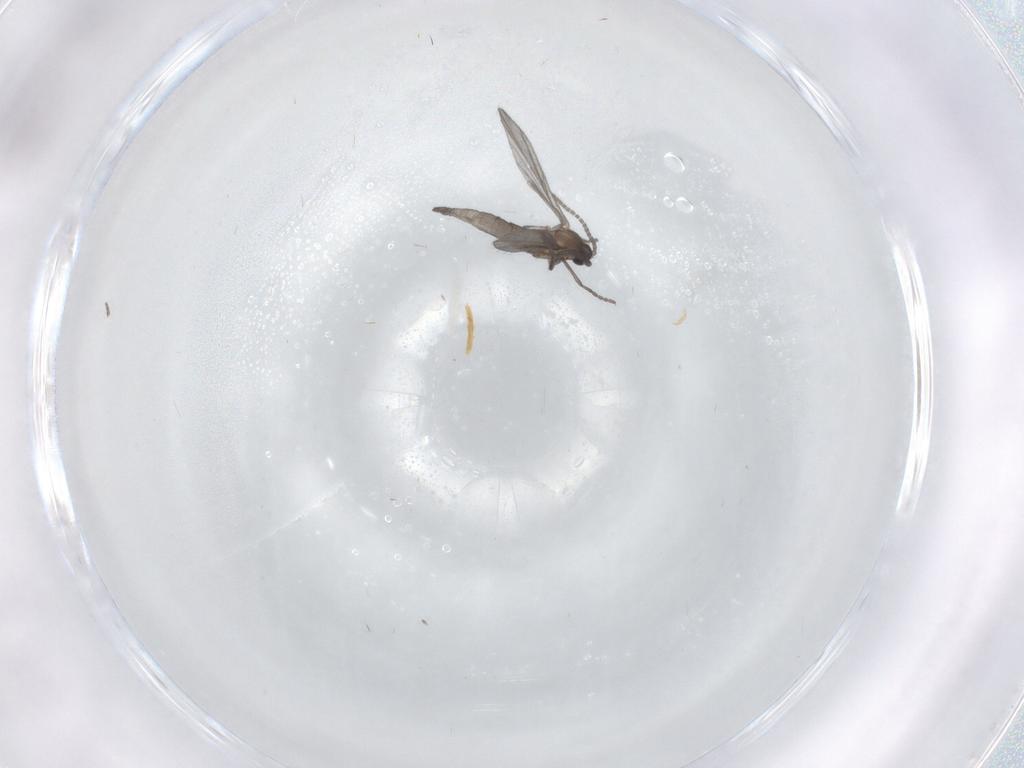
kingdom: Animalia
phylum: Arthropoda
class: Insecta
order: Diptera
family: Sciaridae
